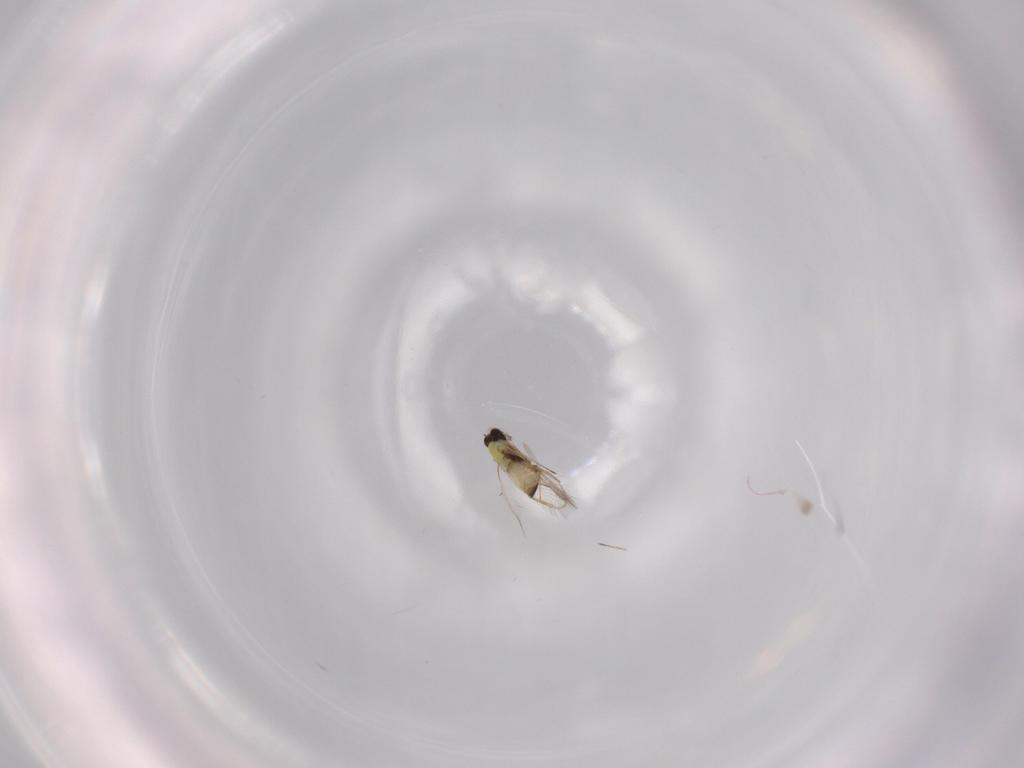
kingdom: Animalia
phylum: Arthropoda
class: Insecta
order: Hymenoptera
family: Trichogrammatidae
